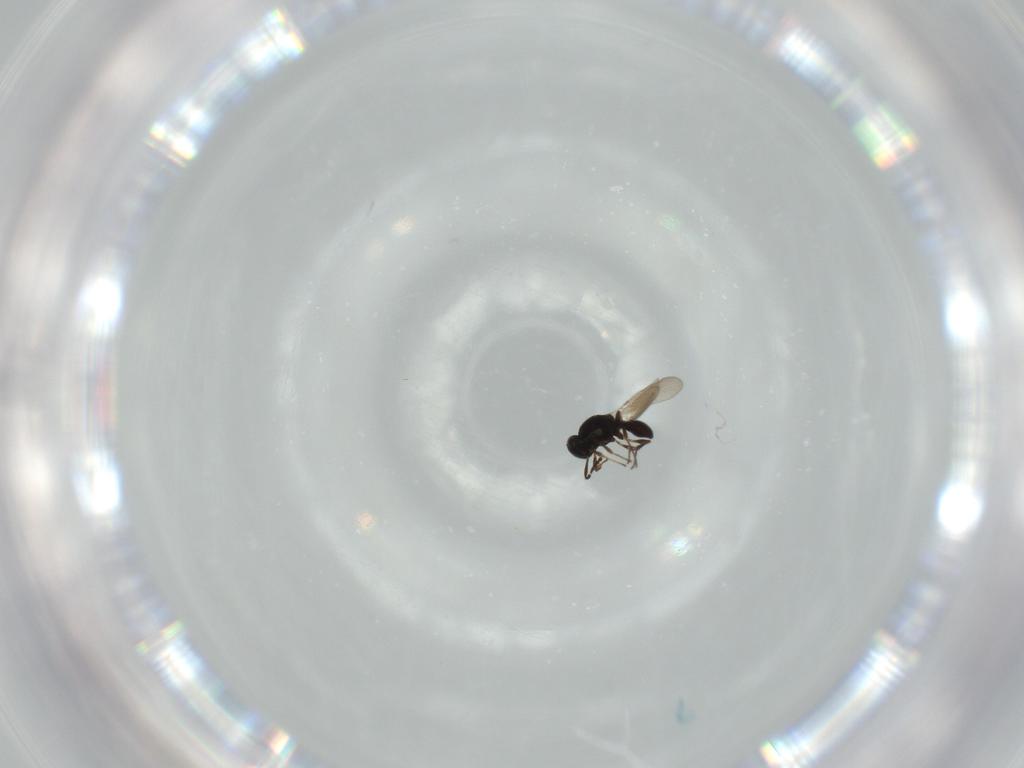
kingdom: Animalia
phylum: Arthropoda
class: Insecta
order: Hymenoptera
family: Platygastridae
